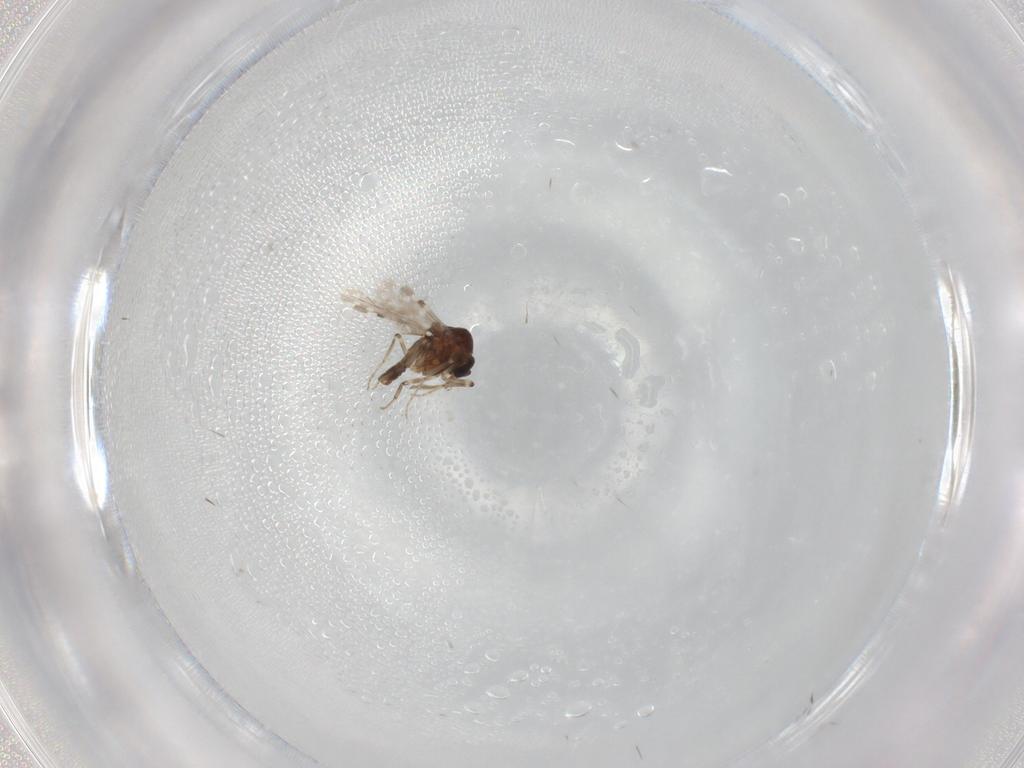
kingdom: Animalia
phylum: Arthropoda
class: Insecta
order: Diptera
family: Ceratopogonidae
